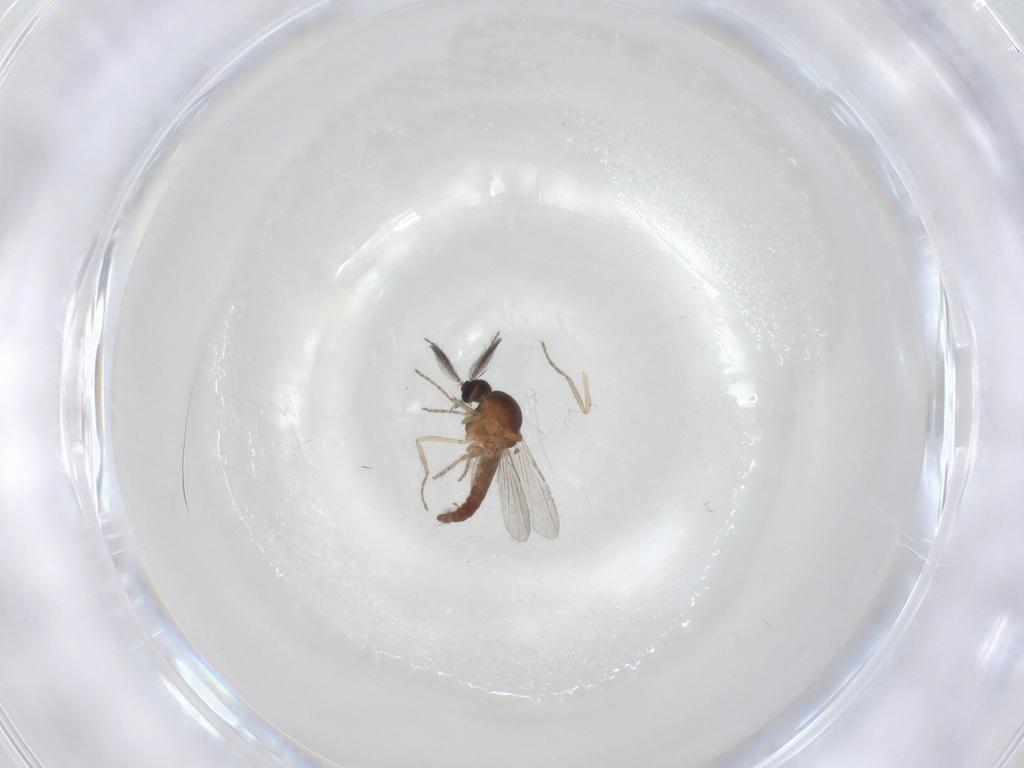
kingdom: Animalia
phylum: Arthropoda
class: Insecta
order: Diptera
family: Ceratopogonidae
